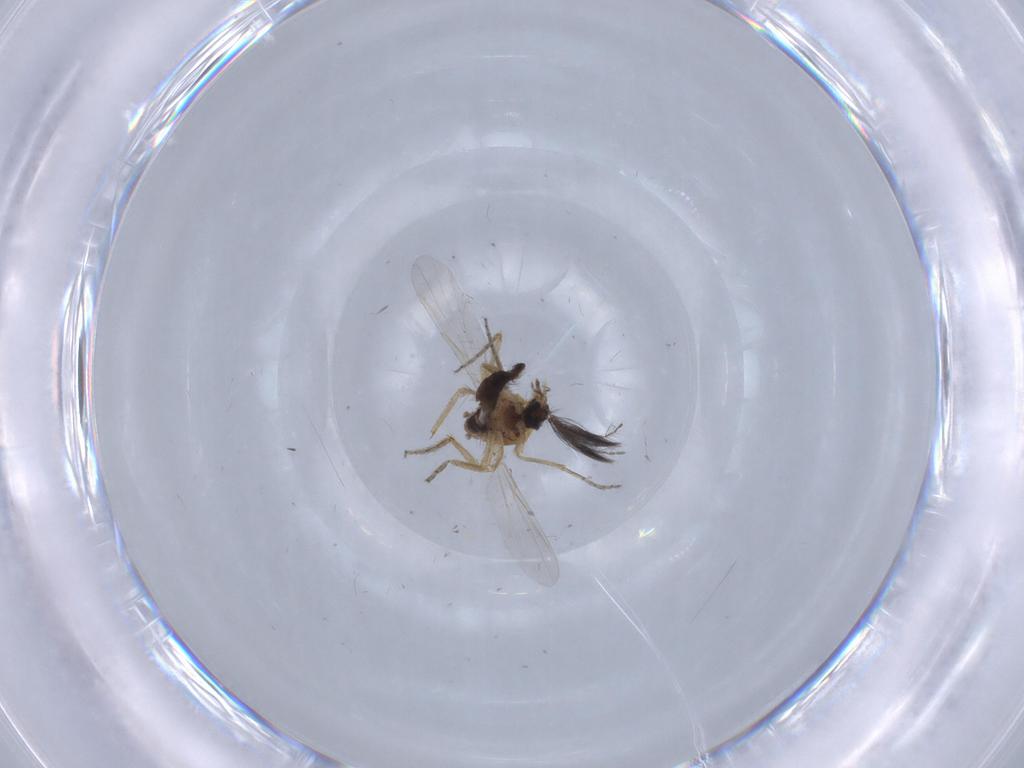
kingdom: Animalia
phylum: Arthropoda
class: Insecta
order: Diptera
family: Ceratopogonidae
